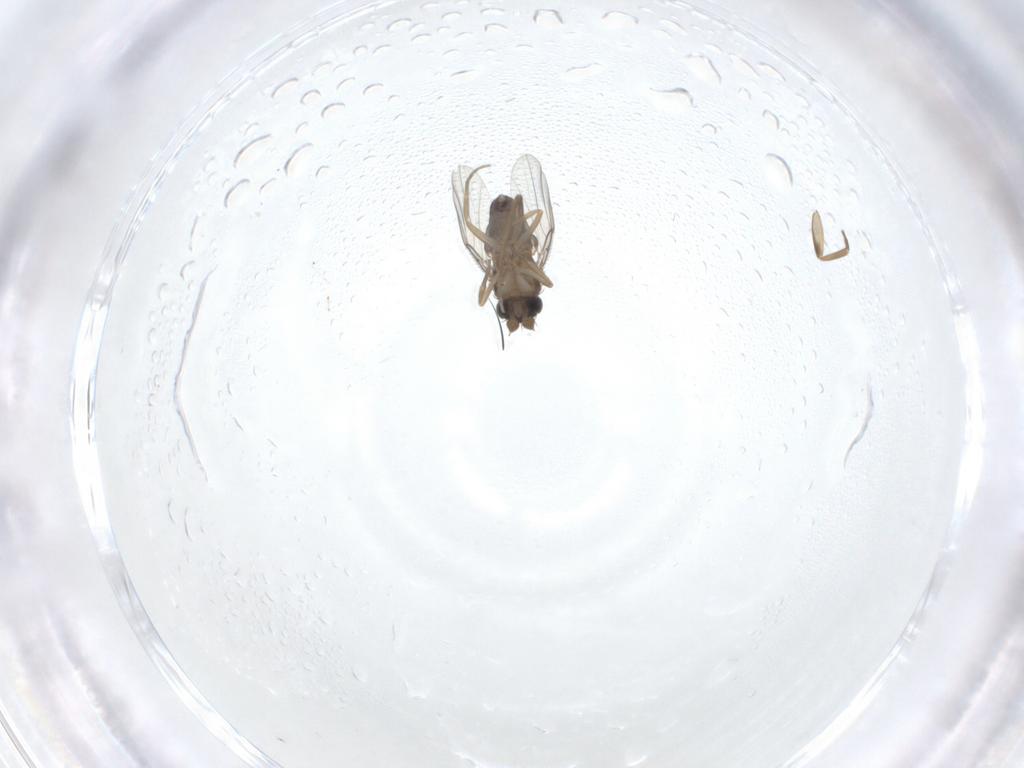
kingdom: Animalia
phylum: Arthropoda
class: Insecta
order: Diptera
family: Phoridae
